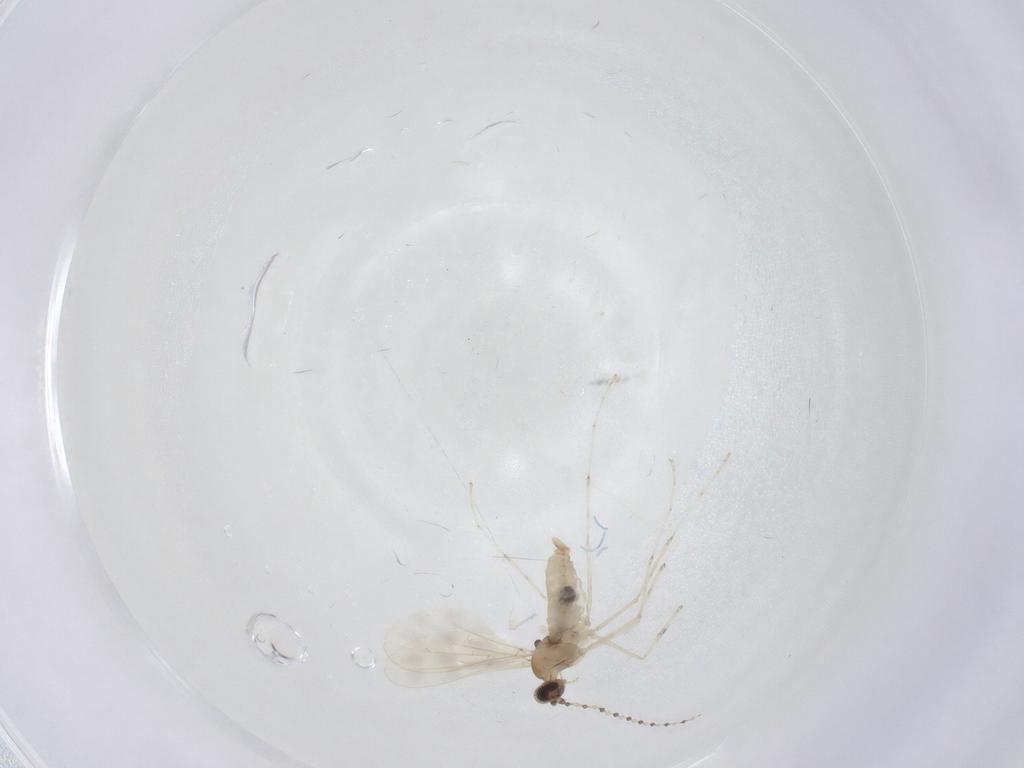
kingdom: Animalia
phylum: Arthropoda
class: Insecta
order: Diptera
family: Cecidomyiidae
